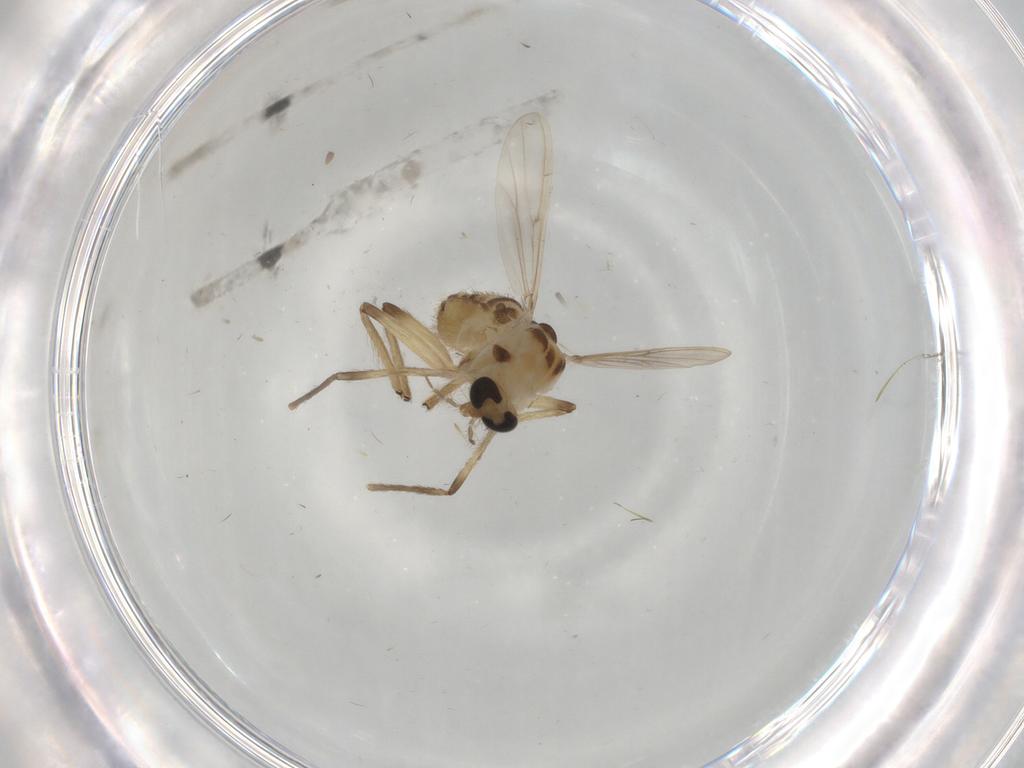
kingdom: Animalia
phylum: Arthropoda
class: Insecta
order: Diptera
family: Chironomidae
